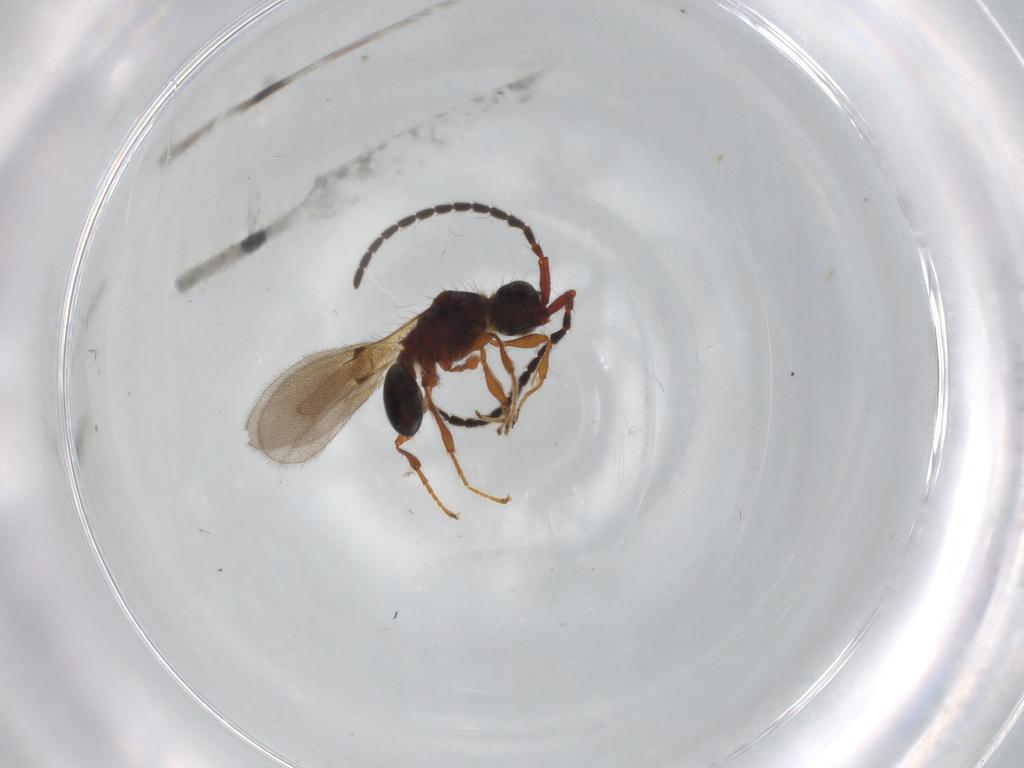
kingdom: Animalia
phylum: Arthropoda
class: Insecta
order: Hymenoptera
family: Diapriidae
